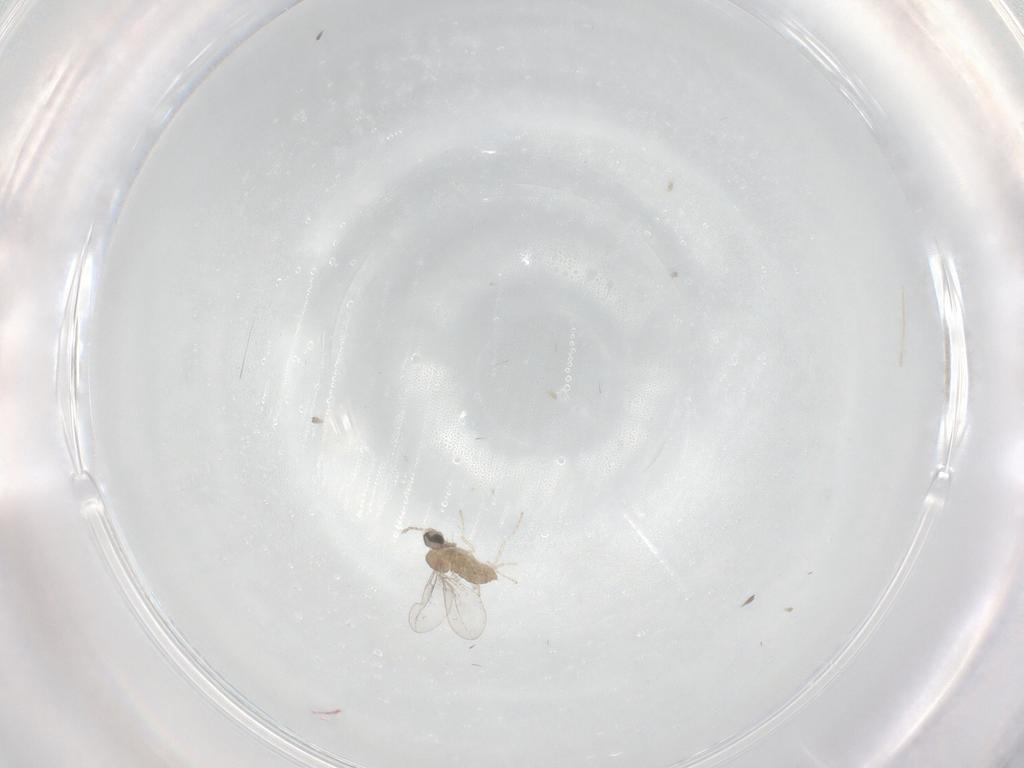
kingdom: Animalia
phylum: Arthropoda
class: Insecta
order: Diptera
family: Cecidomyiidae
